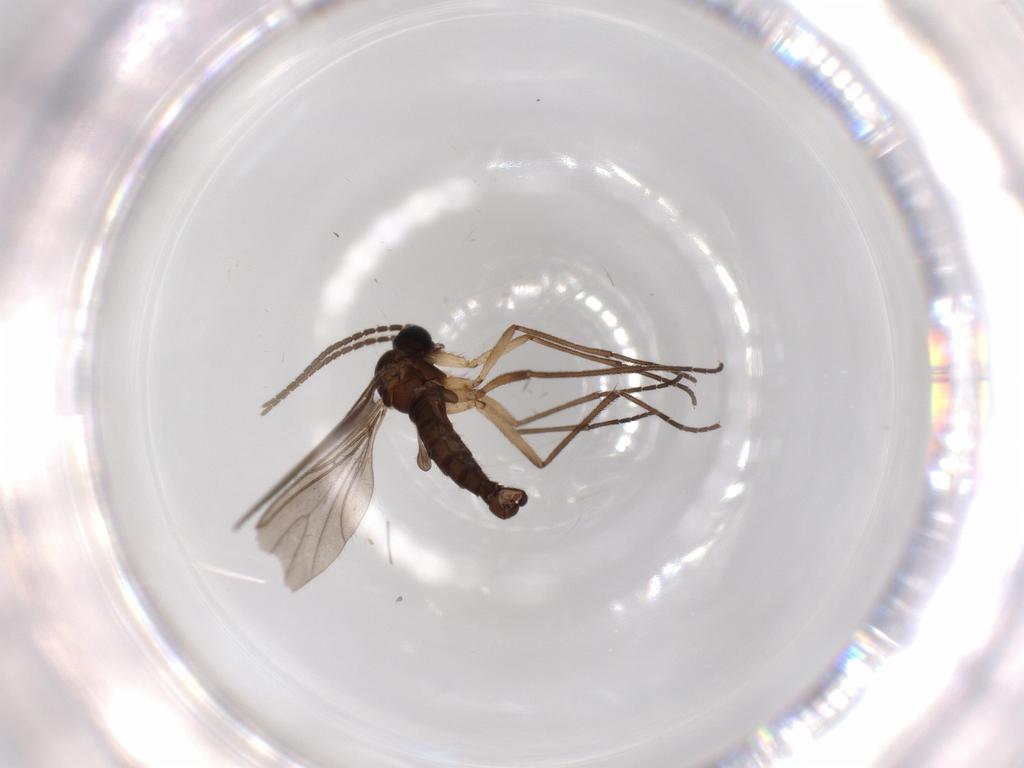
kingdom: Animalia
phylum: Arthropoda
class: Insecta
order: Diptera
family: Sciaridae
